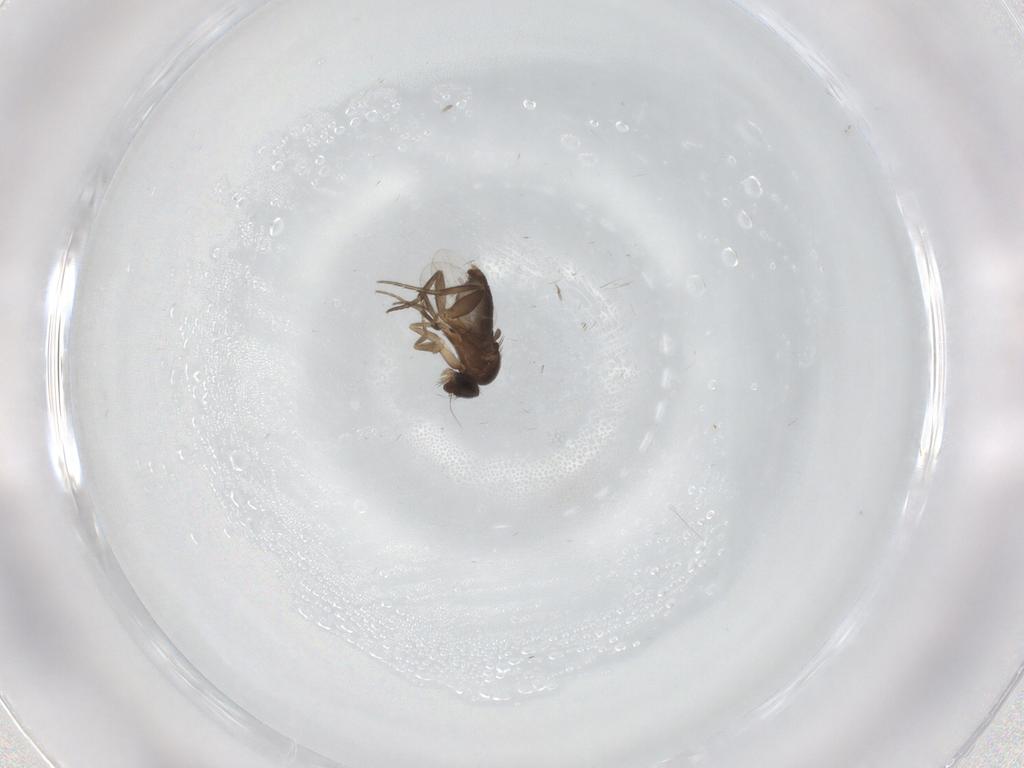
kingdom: Animalia
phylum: Arthropoda
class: Insecta
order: Diptera
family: Phoridae
